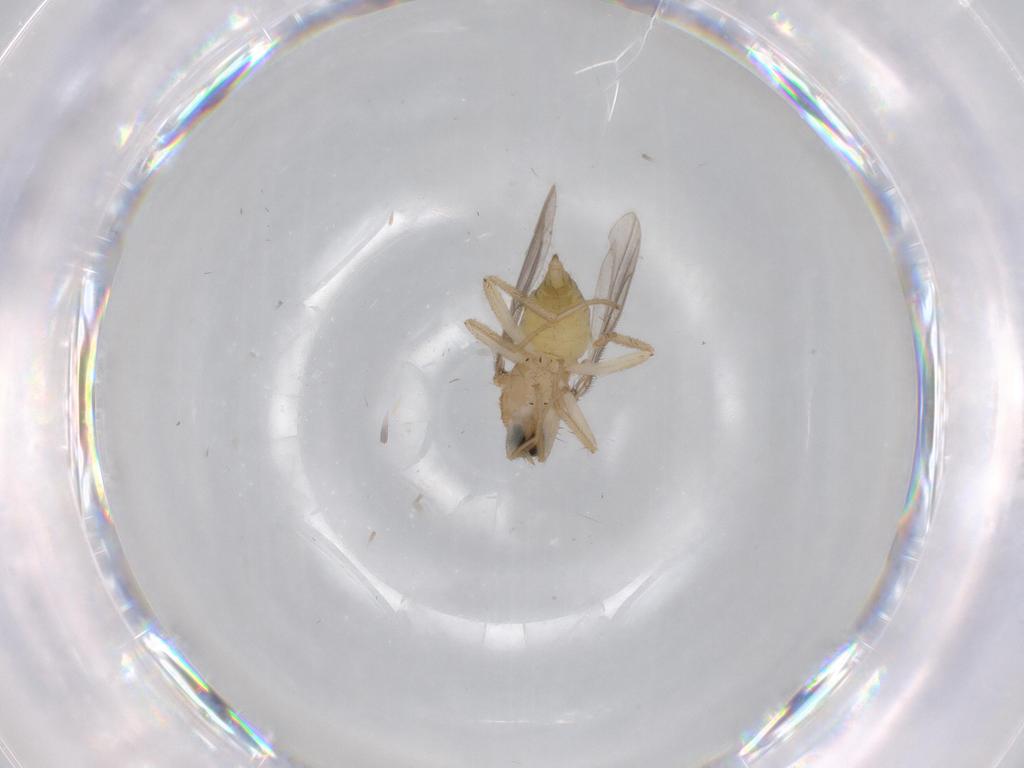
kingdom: Animalia
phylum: Arthropoda
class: Insecta
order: Diptera
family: Hybotidae
